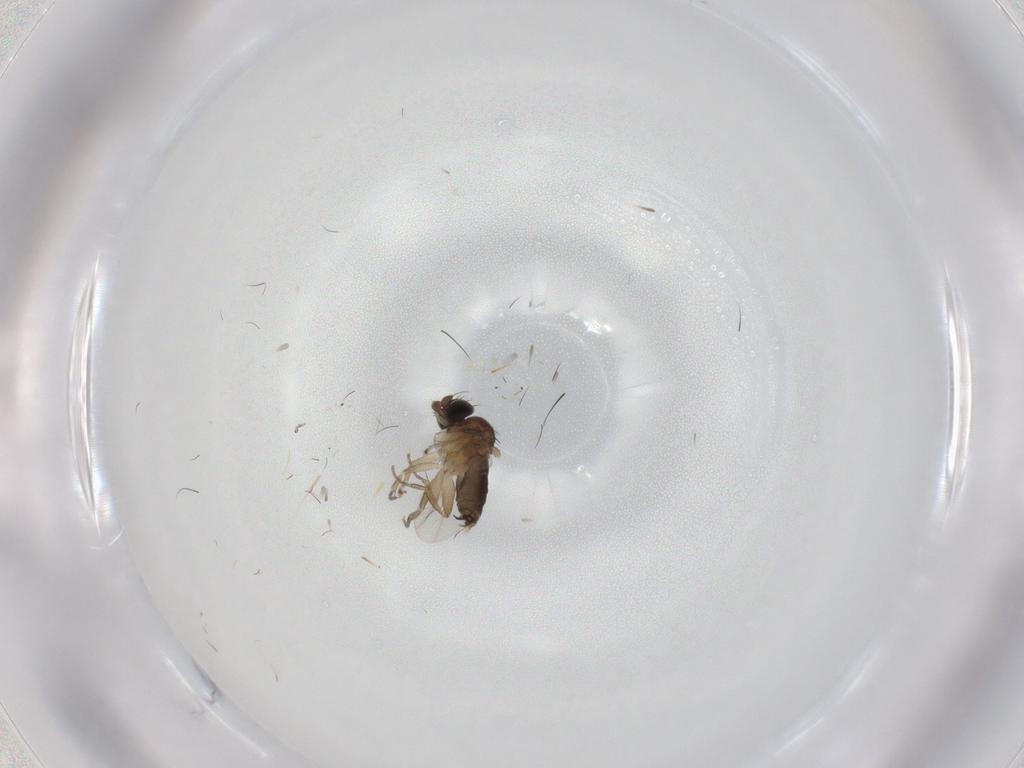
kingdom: Animalia
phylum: Arthropoda
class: Insecta
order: Diptera
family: Phoridae
